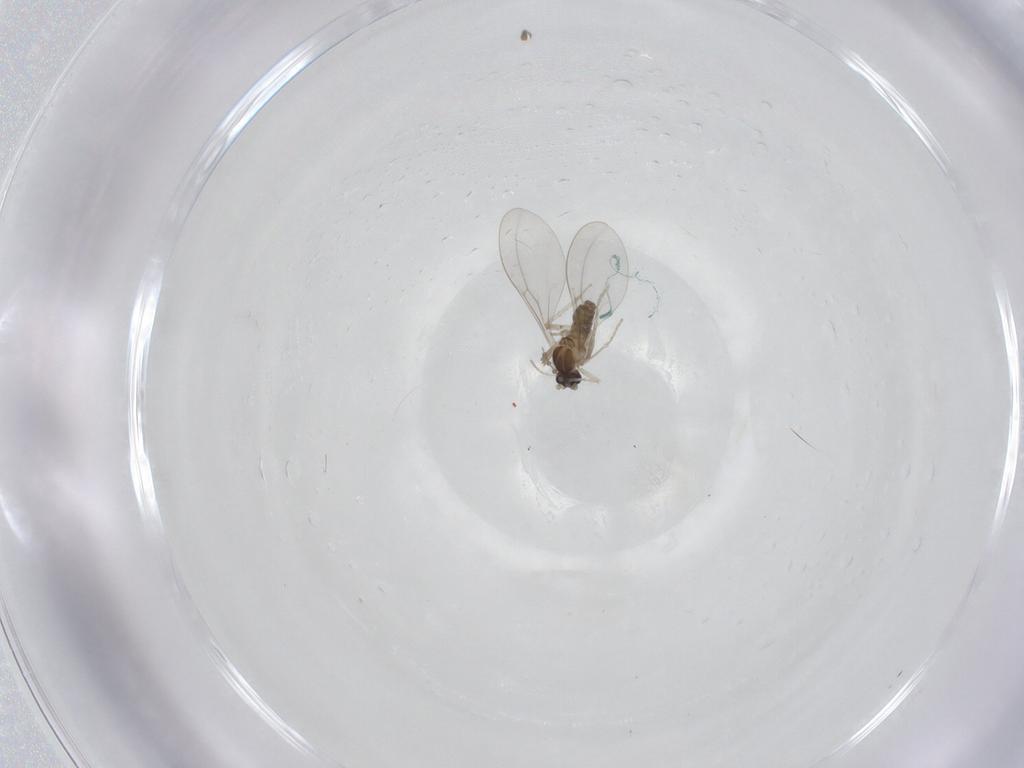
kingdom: Animalia
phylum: Arthropoda
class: Insecta
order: Diptera
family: Cecidomyiidae
